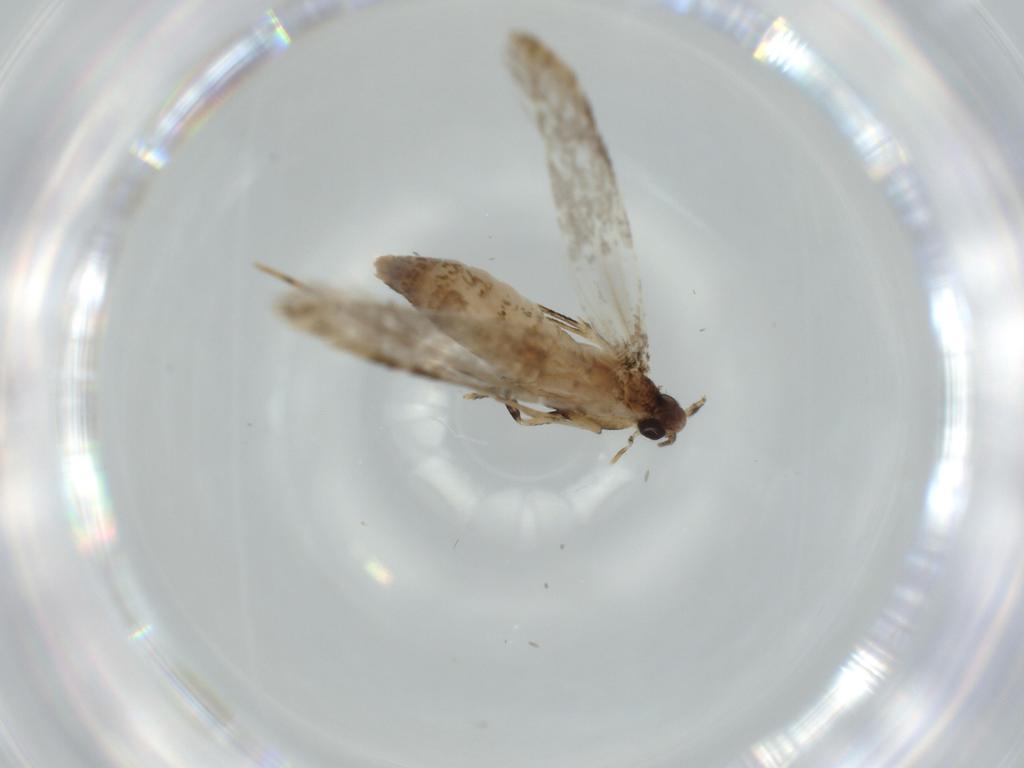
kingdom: Animalia
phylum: Arthropoda
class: Insecta
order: Lepidoptera
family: Tineidae
